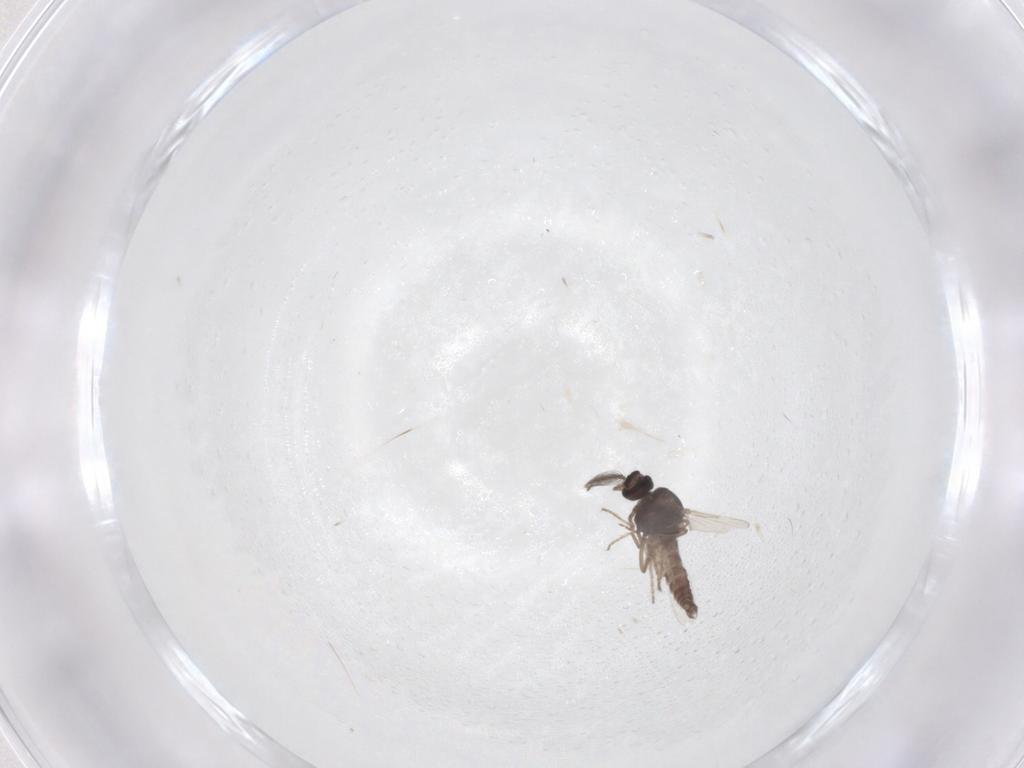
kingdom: Animalia
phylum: Arthropoda
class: Insecta
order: Diptera
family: Ceratopogonidae
